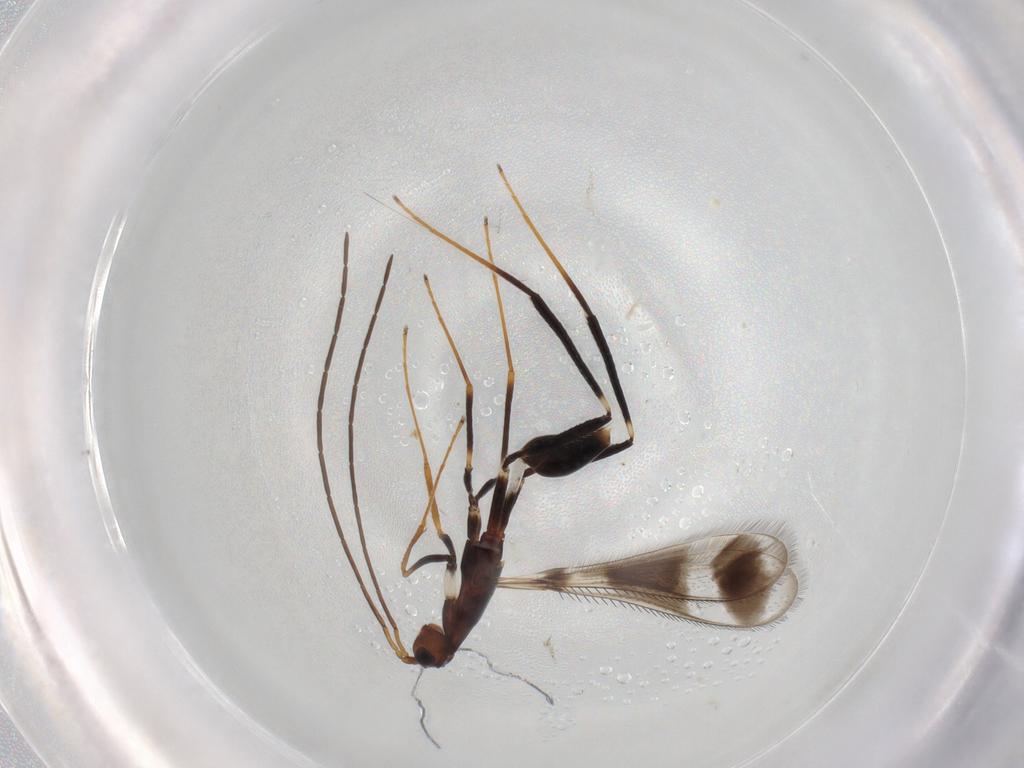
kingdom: Animalia
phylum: Arthropoda
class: Insecta
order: Hymenoptera
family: Mymaridae
